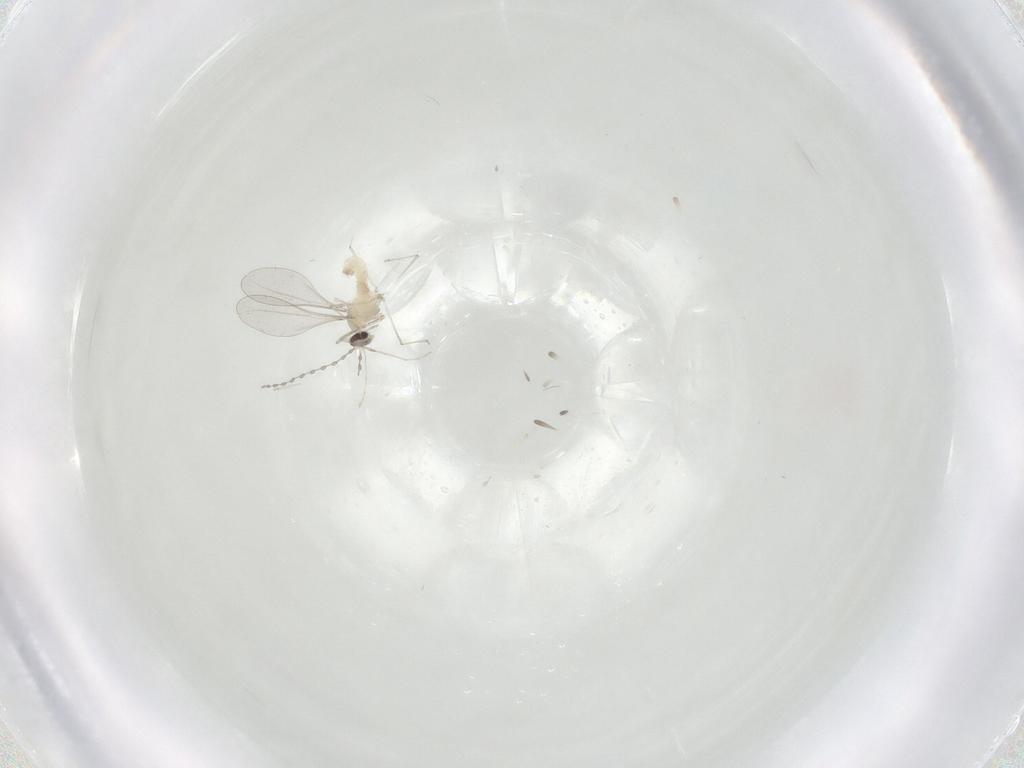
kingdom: Animalia
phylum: Arthropoda
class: Insecta
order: Diptera
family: Cecidomyiidae
